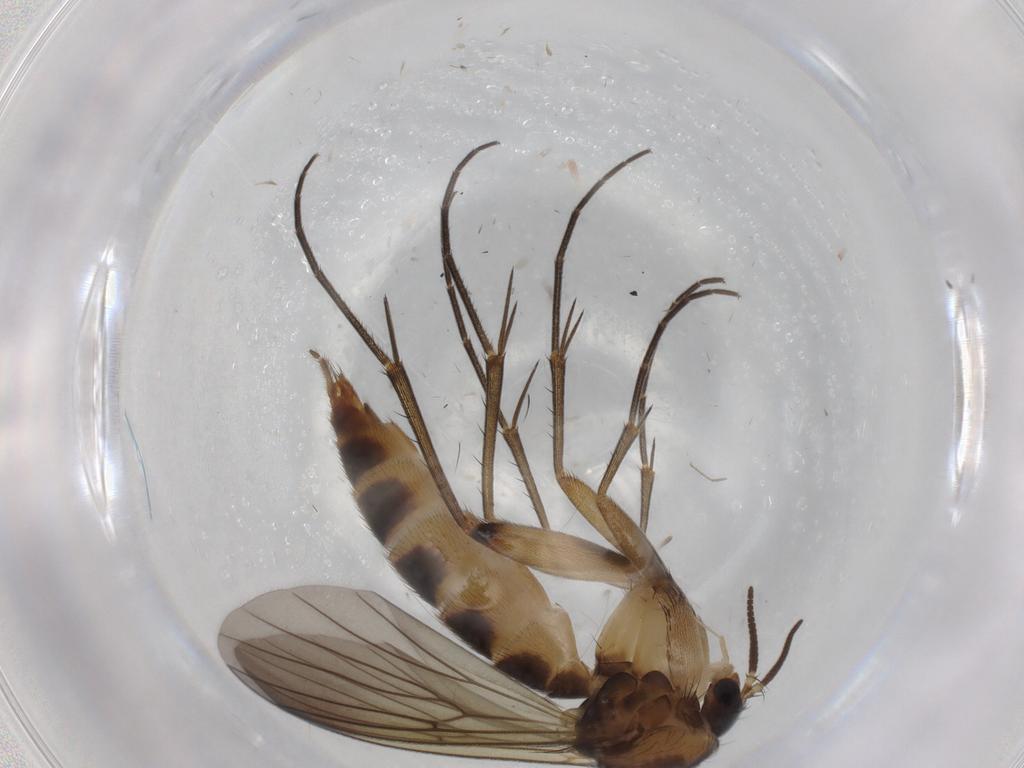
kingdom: Animalia
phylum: Arthropoda
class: Insecta
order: Diptera
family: Mycetophilidae
